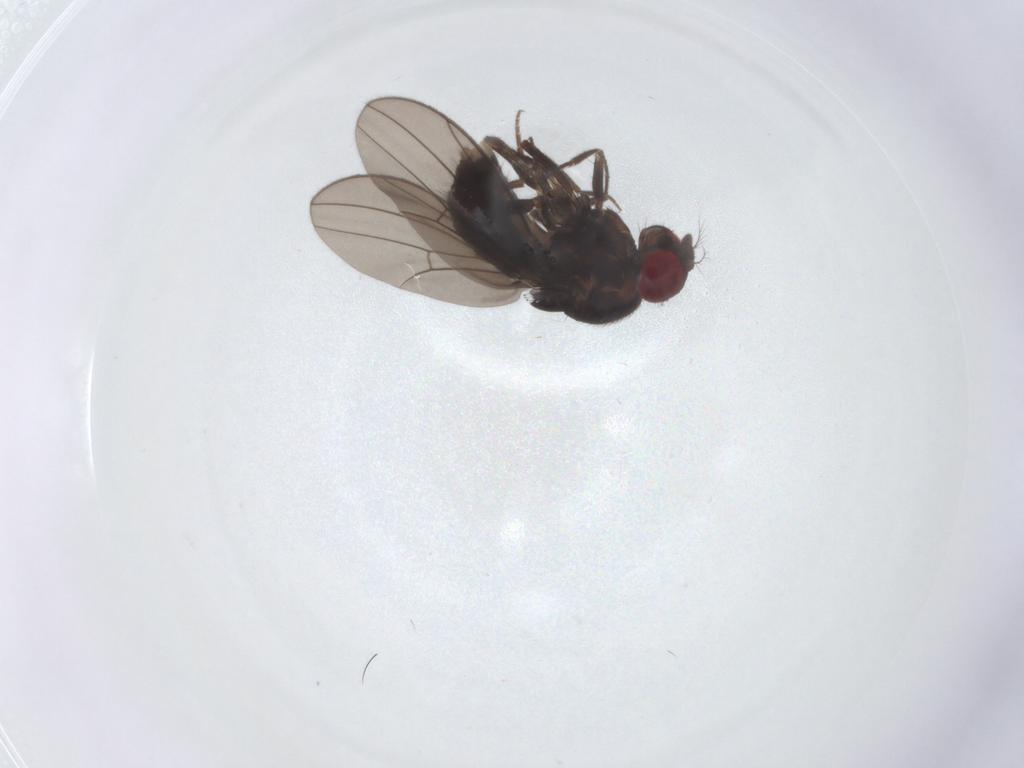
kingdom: Animalia
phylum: Arthropoda
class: Insecta
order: Diptera
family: Drosophilidae
